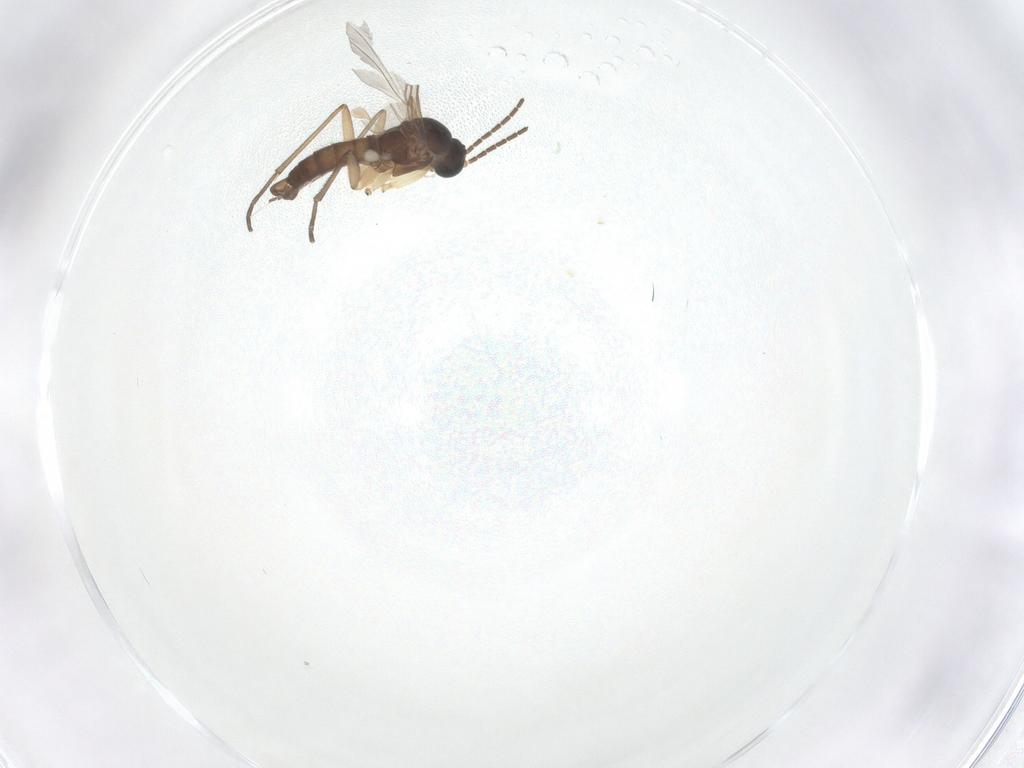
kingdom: Animalia
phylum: Arthropoda
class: Insecta
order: Diptera
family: Sciaridae
